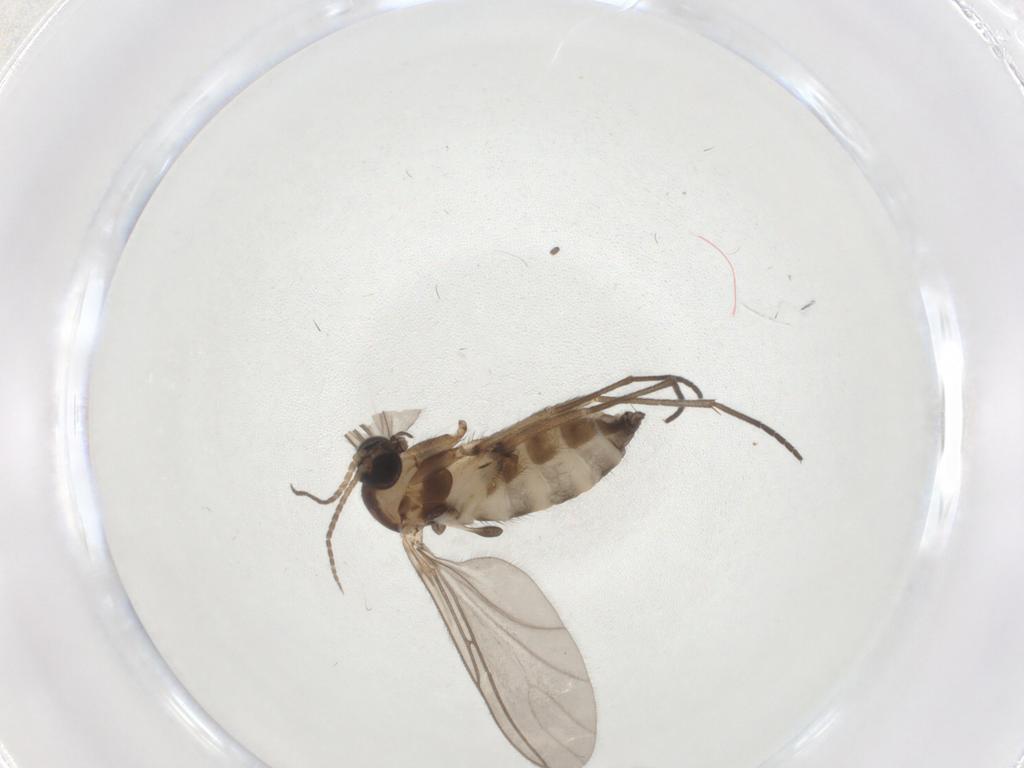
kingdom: Animalia
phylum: Arthropoda
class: Insecta
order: Diptera
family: Sciaridae
